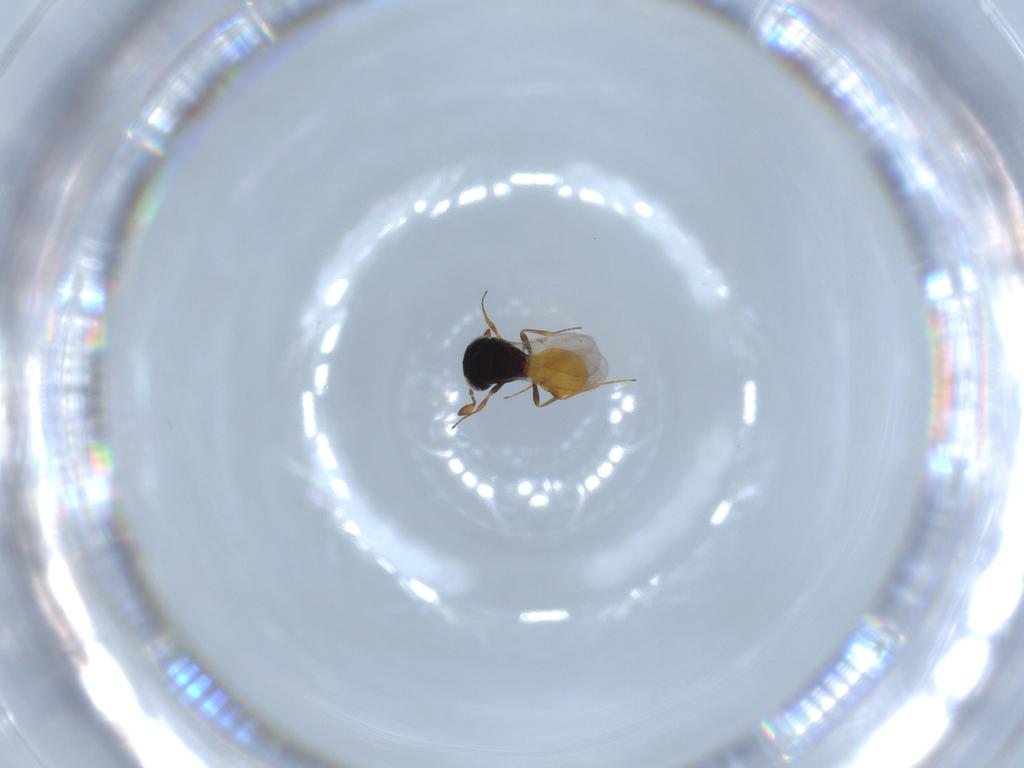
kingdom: Animalia
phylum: Arthropoda
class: Insecta
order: Hymenoptera
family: Scelionidae
